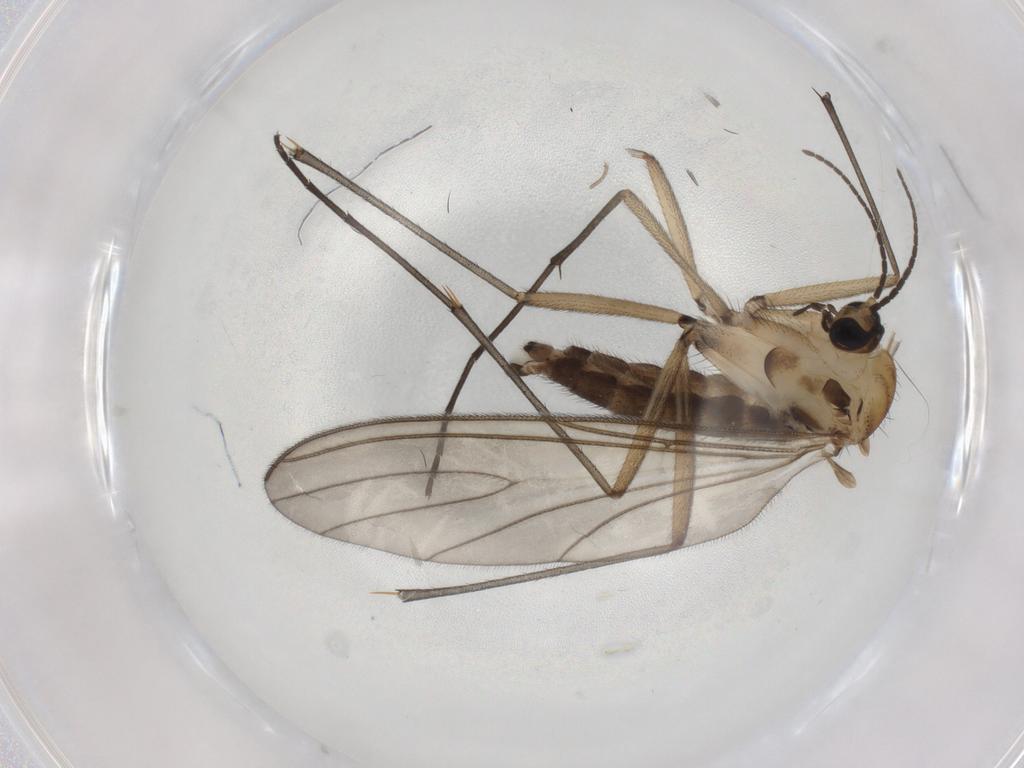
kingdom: Animalia
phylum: Arthropoda
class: Insecta
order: Diptera
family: Sciaridae
